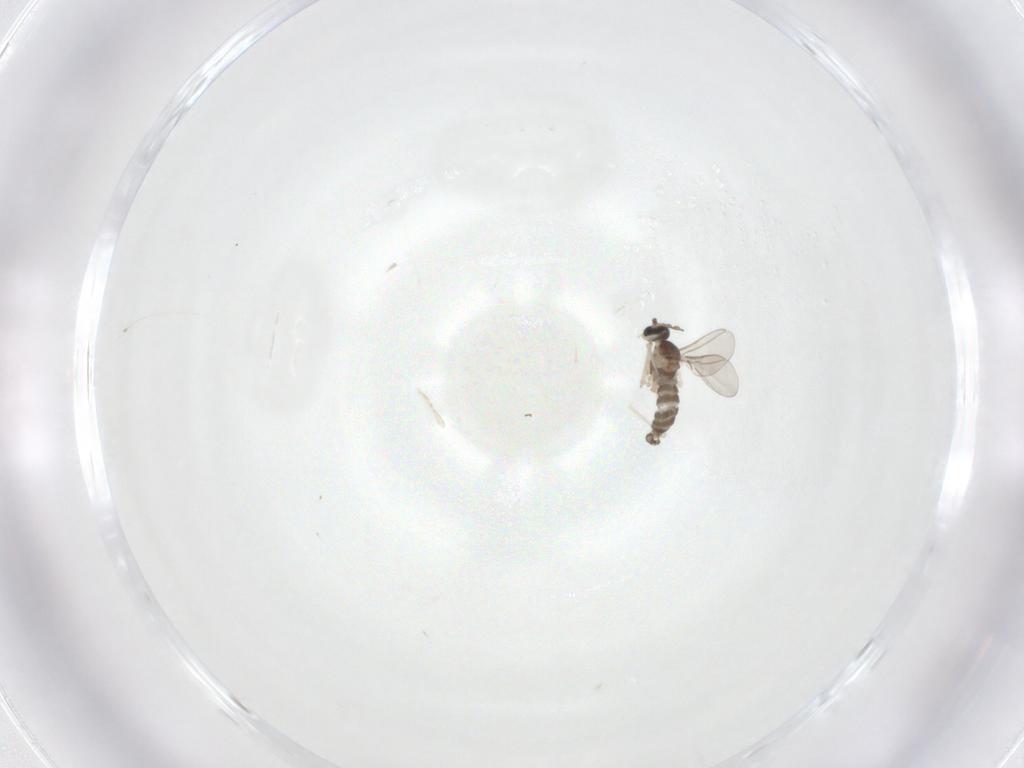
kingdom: Animalia
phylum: Arthropoda
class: Insecta
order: Diptera
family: Cecidomyiidae
